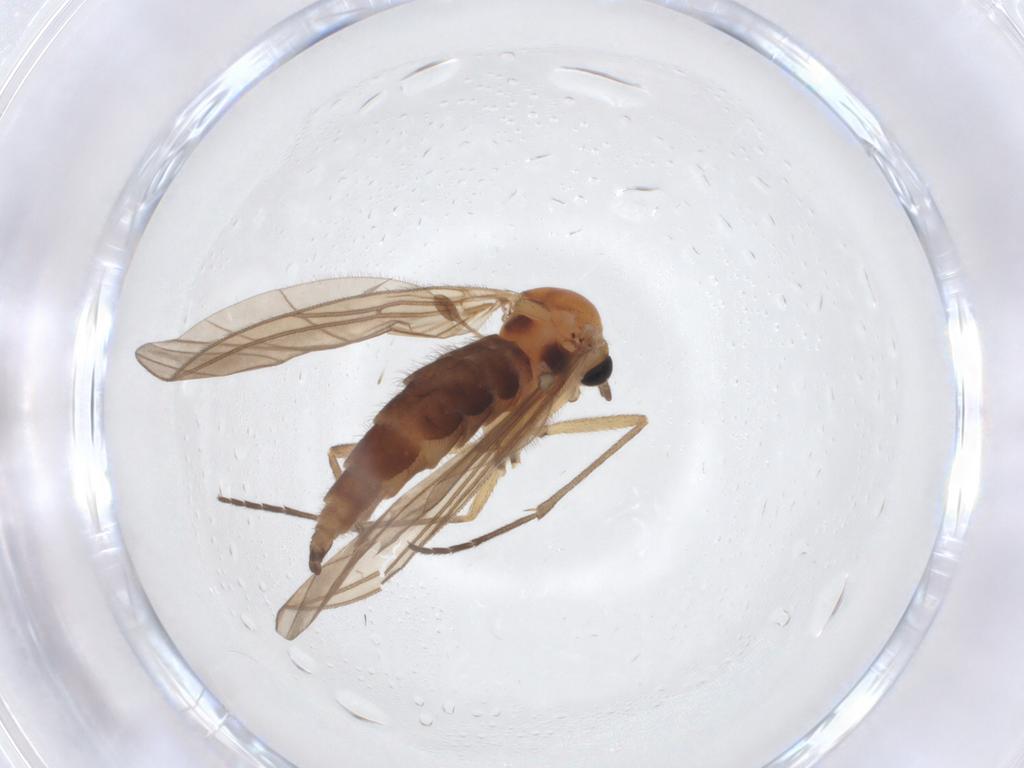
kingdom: Animalia
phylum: Arthropoda
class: Insecta
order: Diptera
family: Sciaridae
